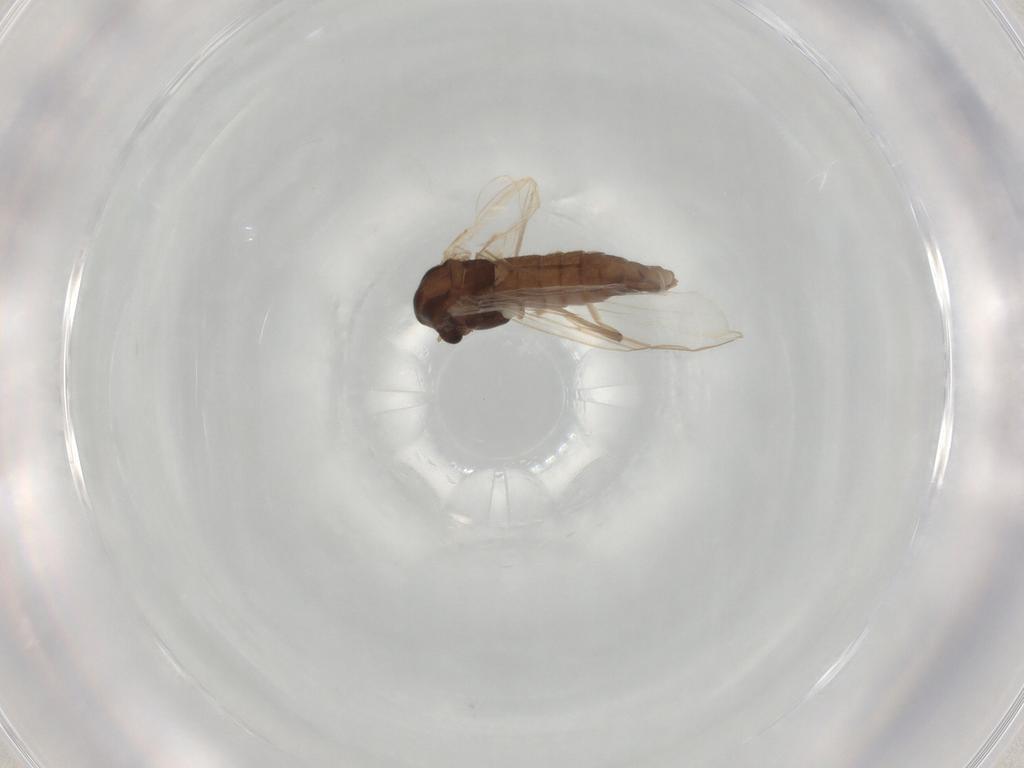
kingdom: Animalia
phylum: Arthropoda
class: Insecta
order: Diptera
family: Chironomidae
